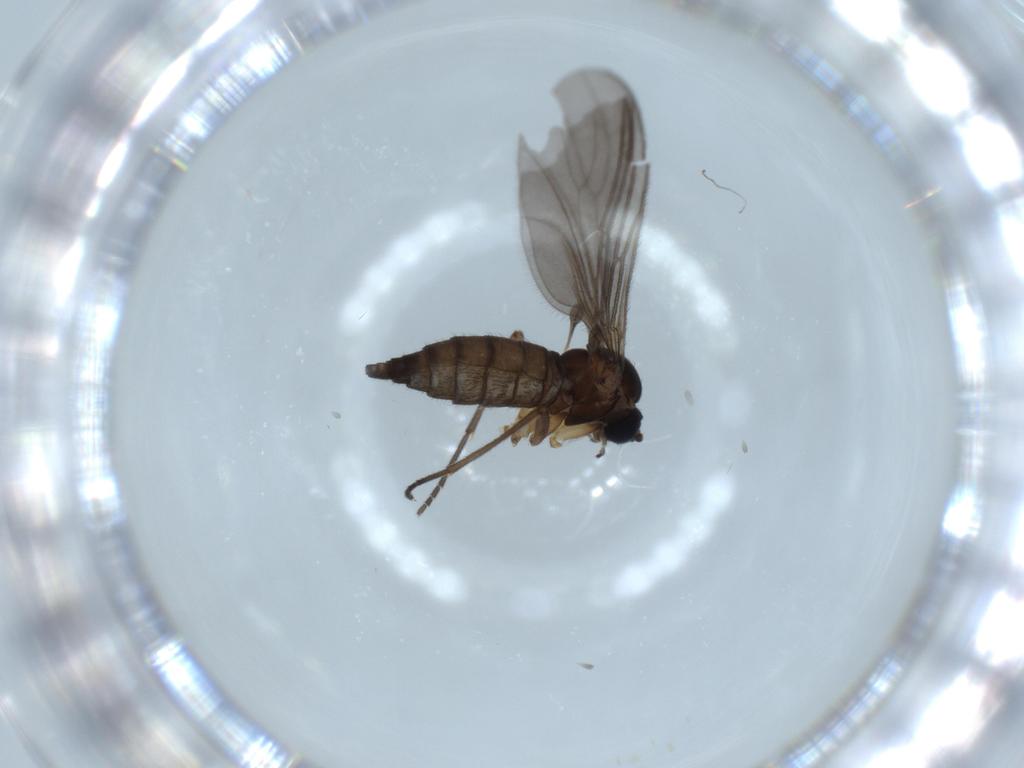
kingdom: Animalia
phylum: Arthropoda
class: Insecta
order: Diptera
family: Sciaridae
